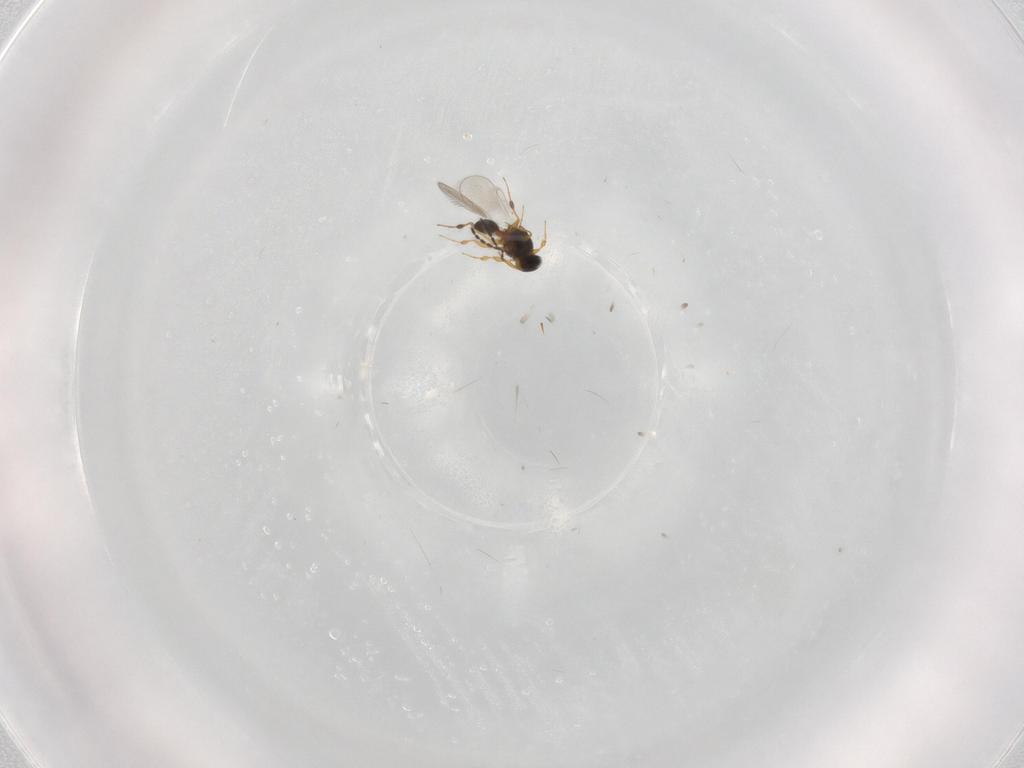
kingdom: Animalia
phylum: Arthropoda
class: Insecta
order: Hymenoptera
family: Platygastridae
